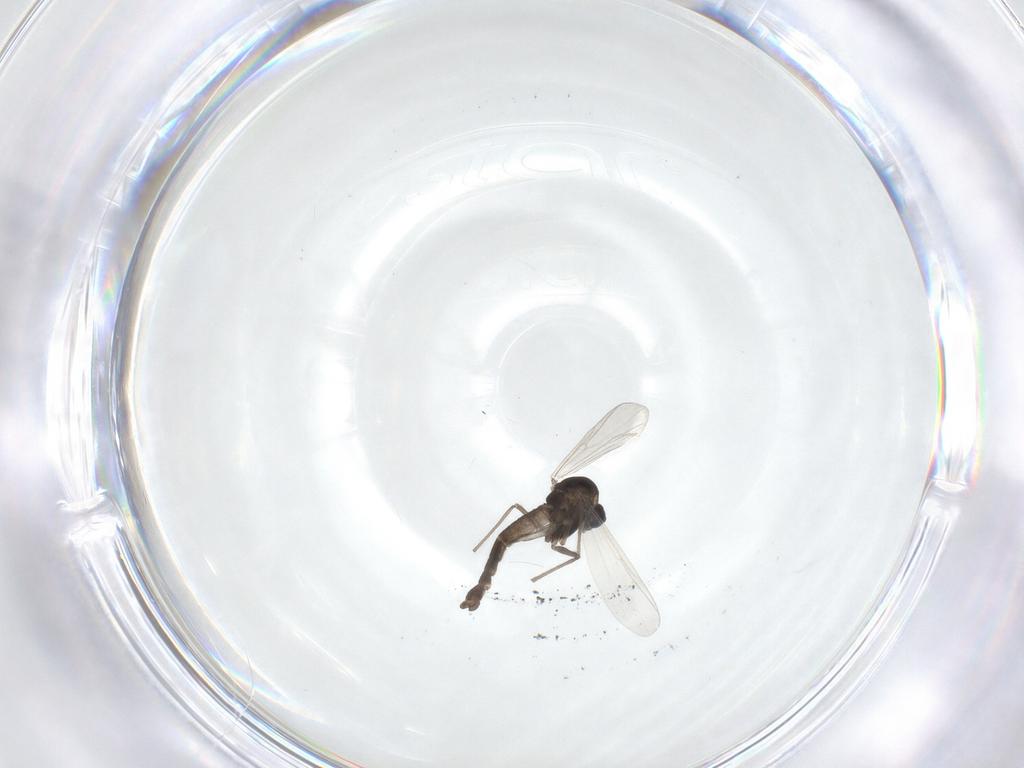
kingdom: Animalia
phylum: Arthropoda
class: Insecta
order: Diptera
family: Chironomidae
